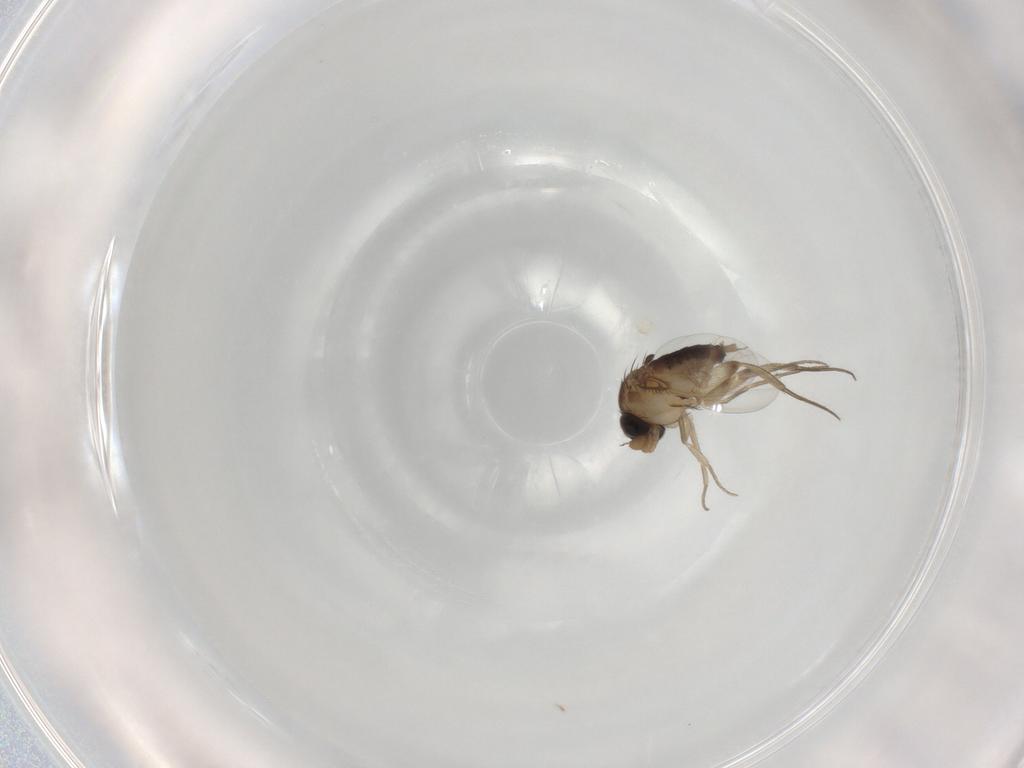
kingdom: Animalia
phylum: Arthropoda
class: Insecta
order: Diptera
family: Phoridae
